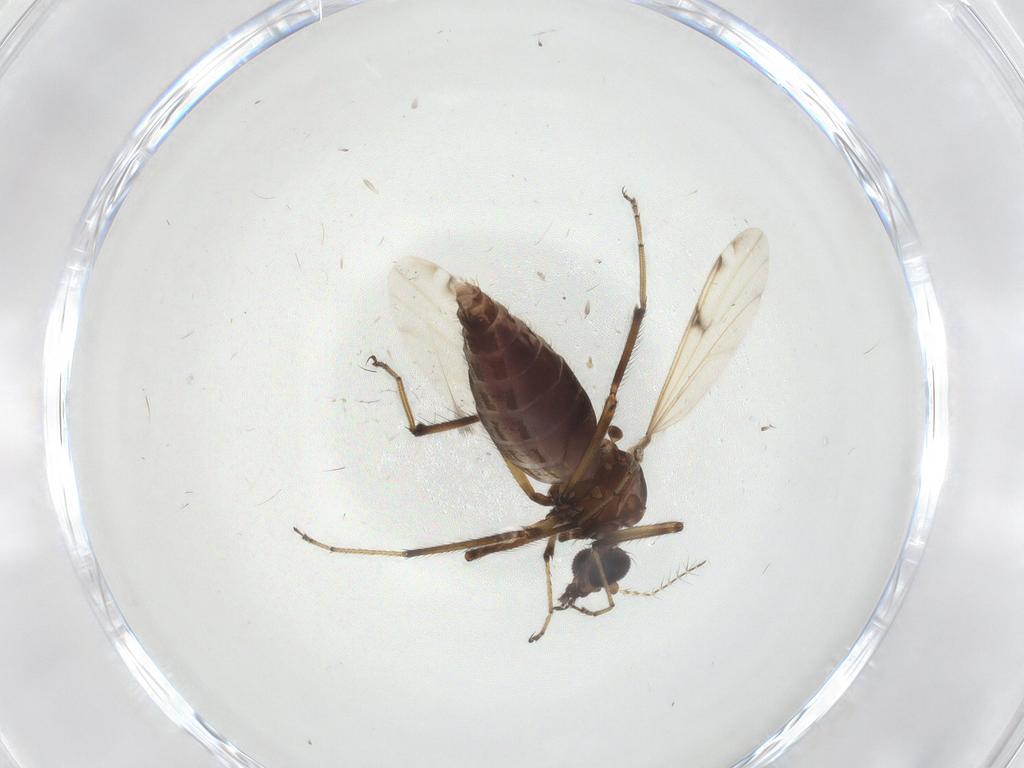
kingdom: Animalia
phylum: Arthropoda
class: Insecta
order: Diptera
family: Ceratopogonidae
